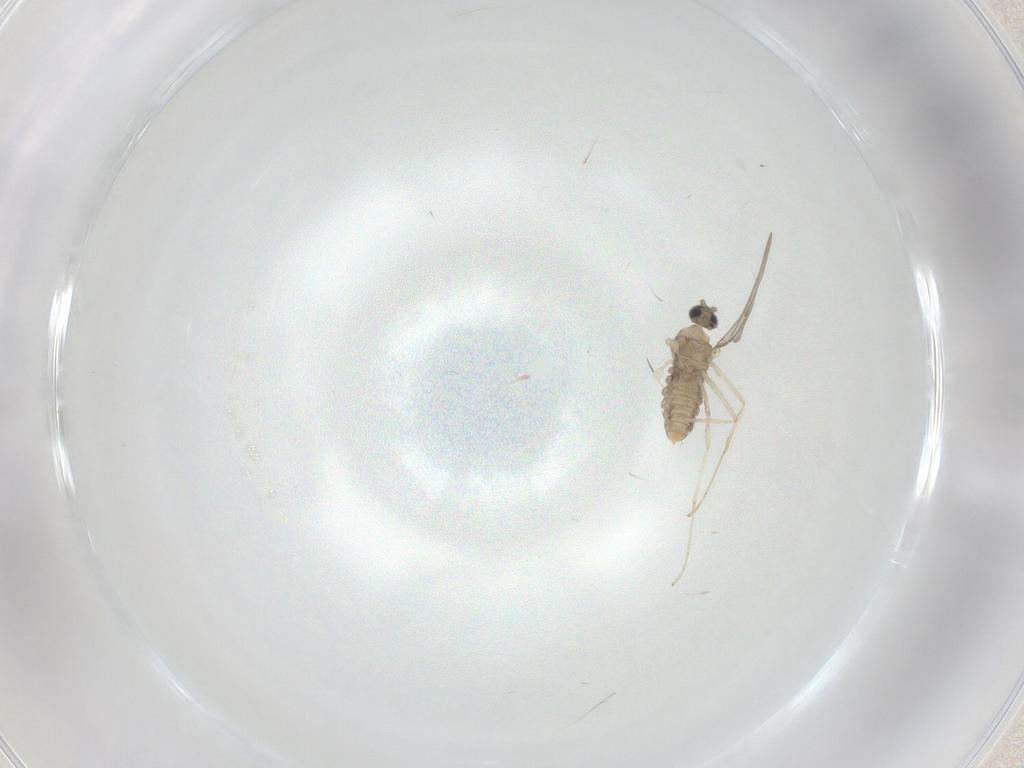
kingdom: Animalia
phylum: Arthropoda
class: Insecta
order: Diptera
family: Cecidomyiidae
